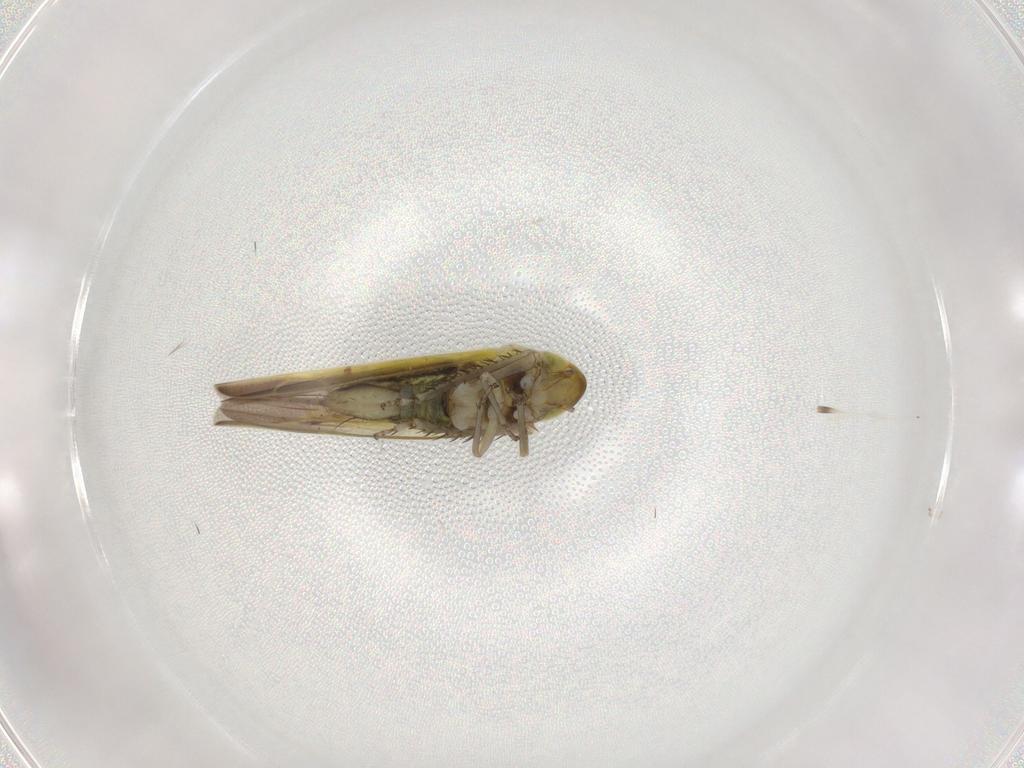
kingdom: Animalia
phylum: Arthropoda
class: Insecta
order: Hemiptera
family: Cicadellidae
